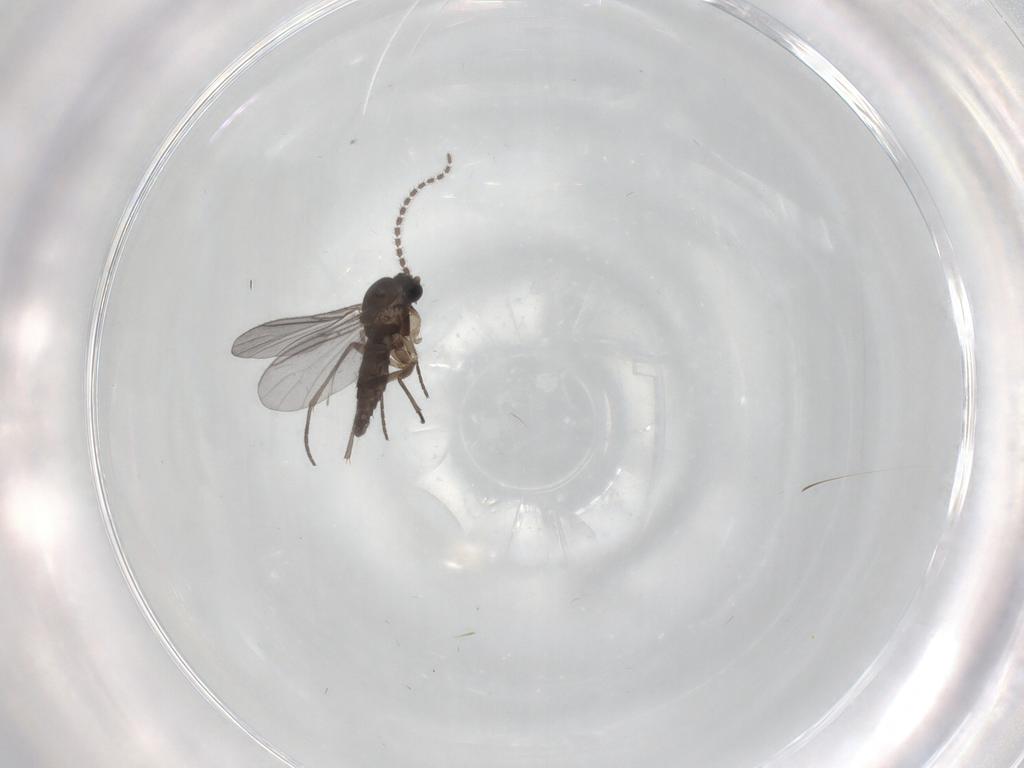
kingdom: Animalia
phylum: Arthropoda
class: Insecta
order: Diptera
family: Sciaridae
